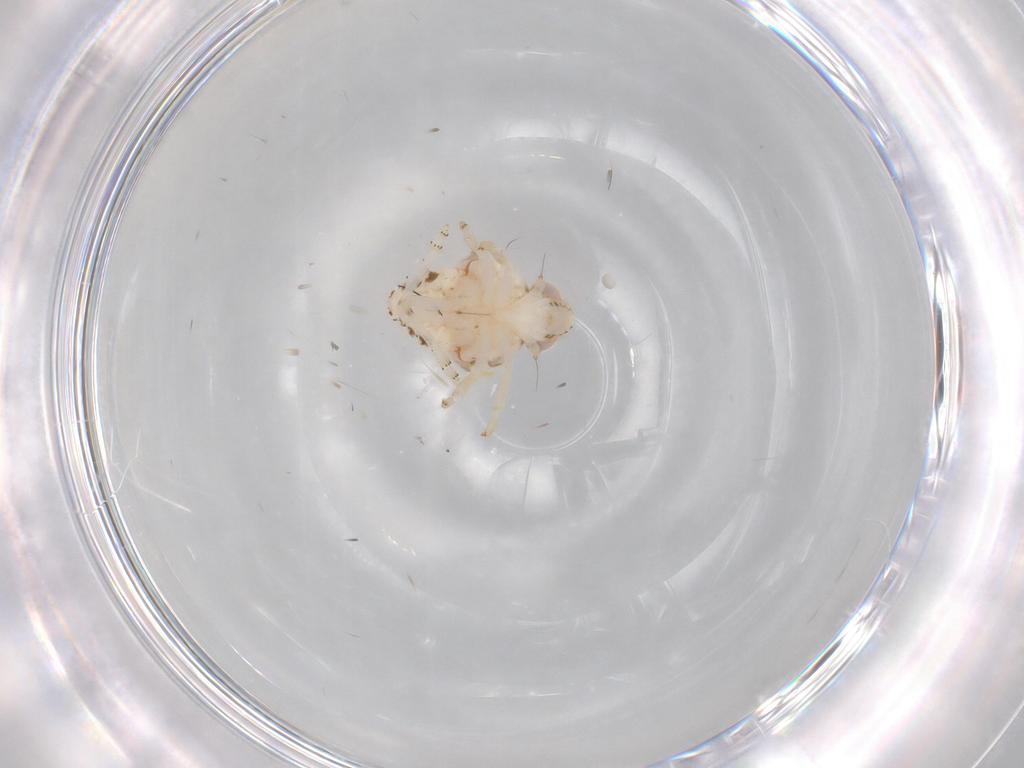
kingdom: Animalia
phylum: Arthropoda
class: Insecta
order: Hemiptera
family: Nogodinidae
